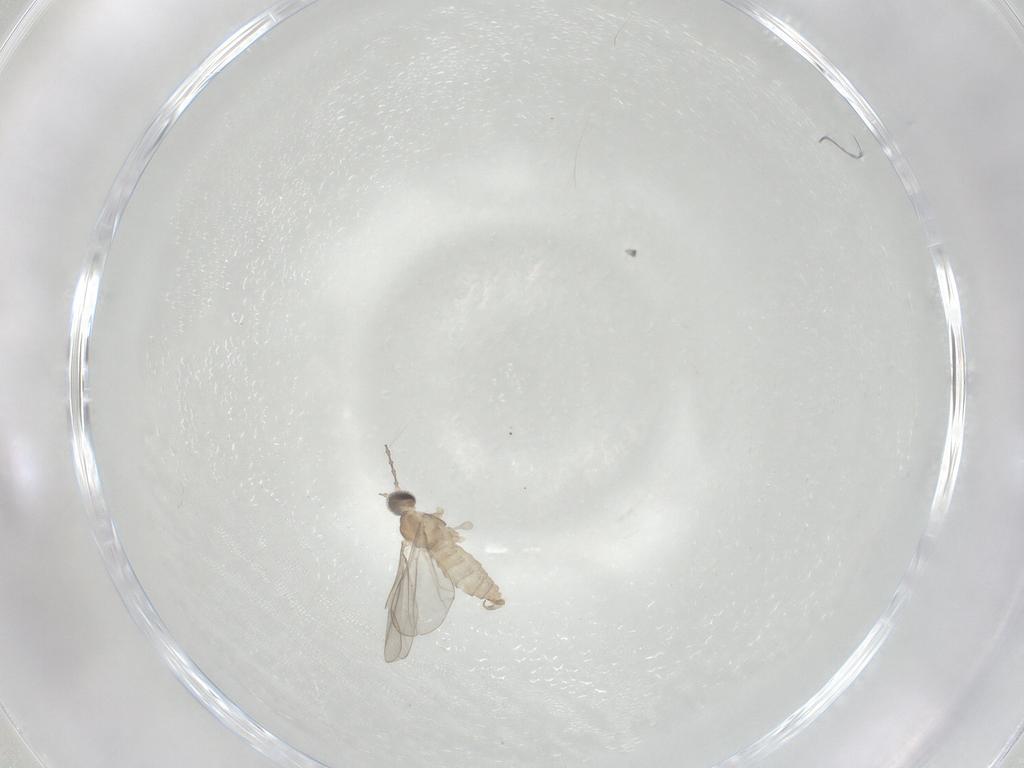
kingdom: Animalia
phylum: Arthropoda
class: Insecta
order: Diptera
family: Cecidomyiidae
